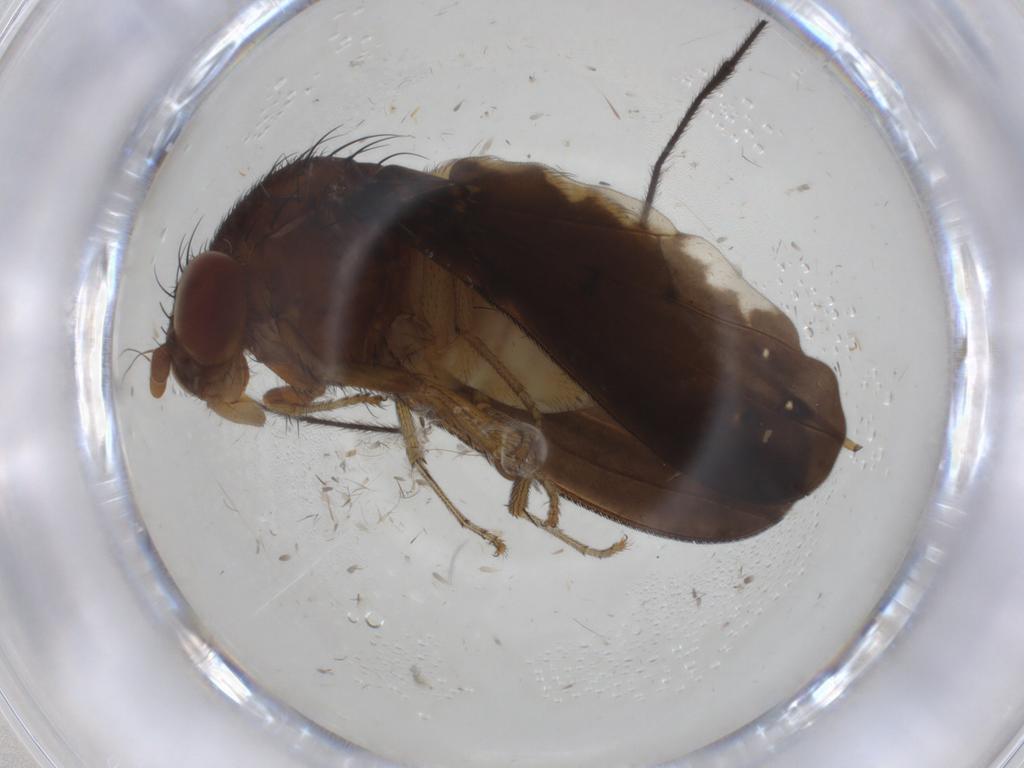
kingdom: Animalia
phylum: Arthropoda
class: Insecta
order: Diptera
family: Limoniidae
